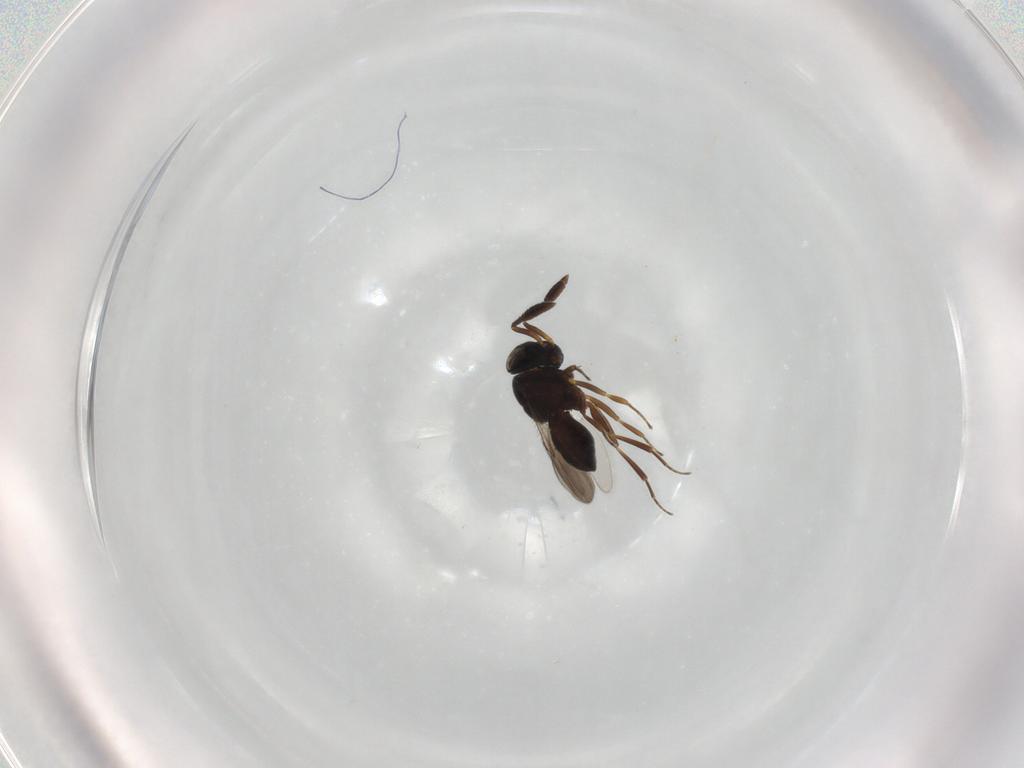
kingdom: Animalia
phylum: Arthropoda
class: Insecta
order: Hymenoptera
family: Scelionidae
